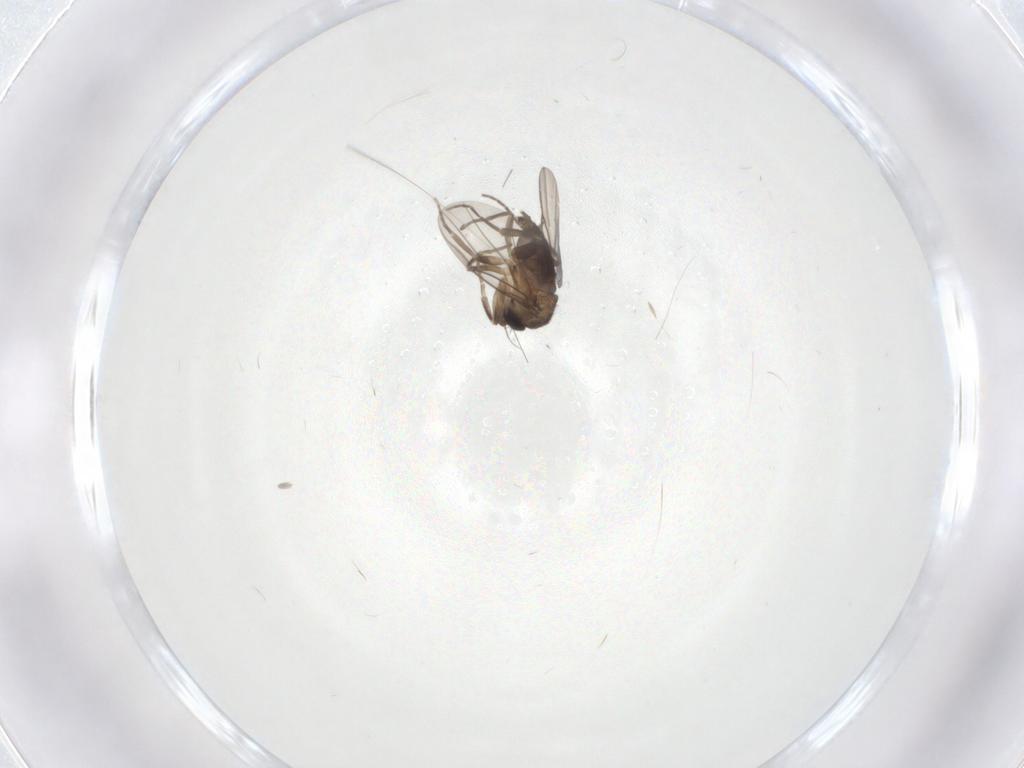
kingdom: Animalia
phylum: Arthropoda
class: Insecta
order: Diptera
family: Phoridae
